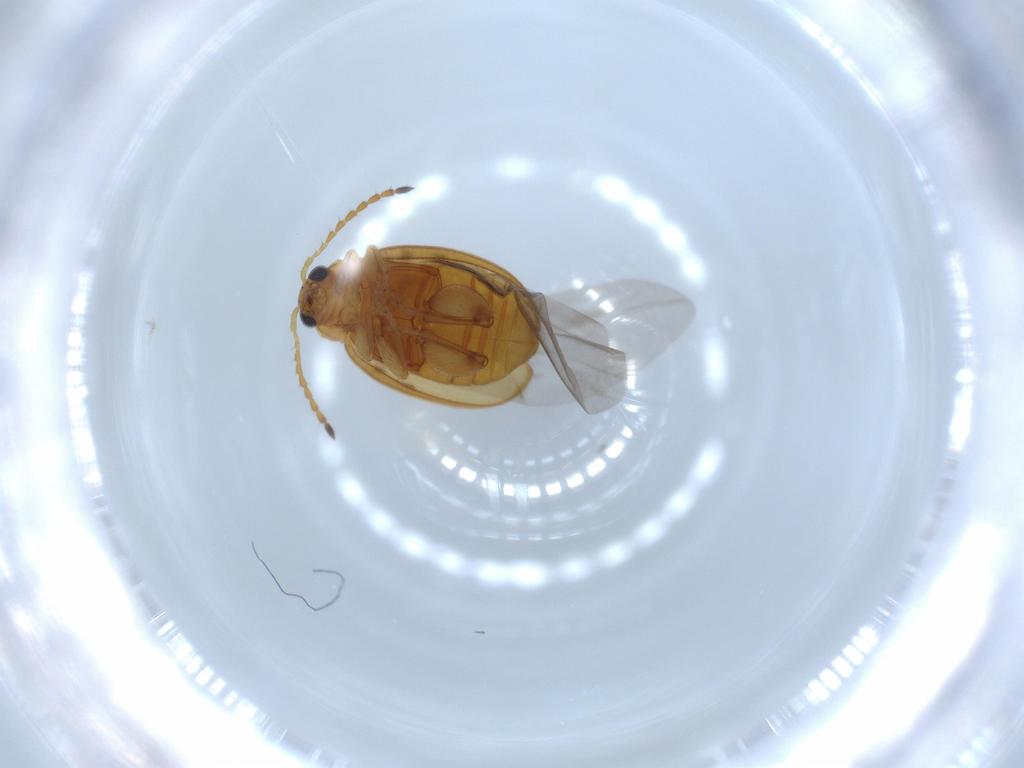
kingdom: Animalia
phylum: Arthropoda
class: Insecta
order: Coleoptera
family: Chrysomelidae
